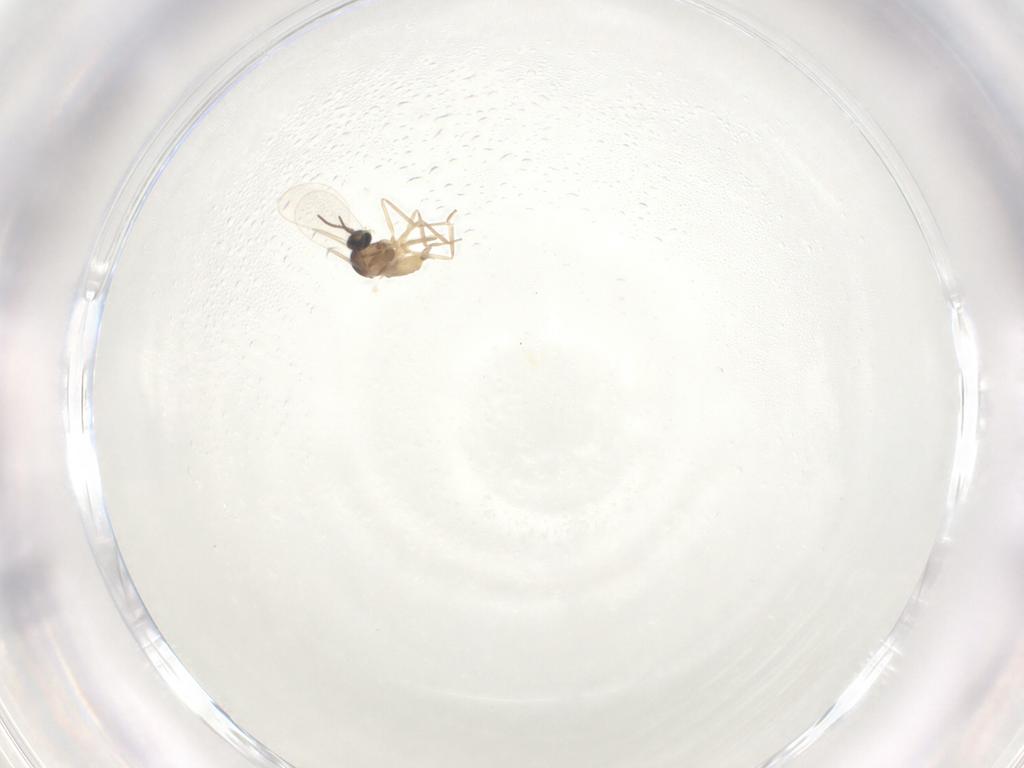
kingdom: Animalia
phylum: Arthropoda
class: Insecta
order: Diptera
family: Cecidomyiidae
